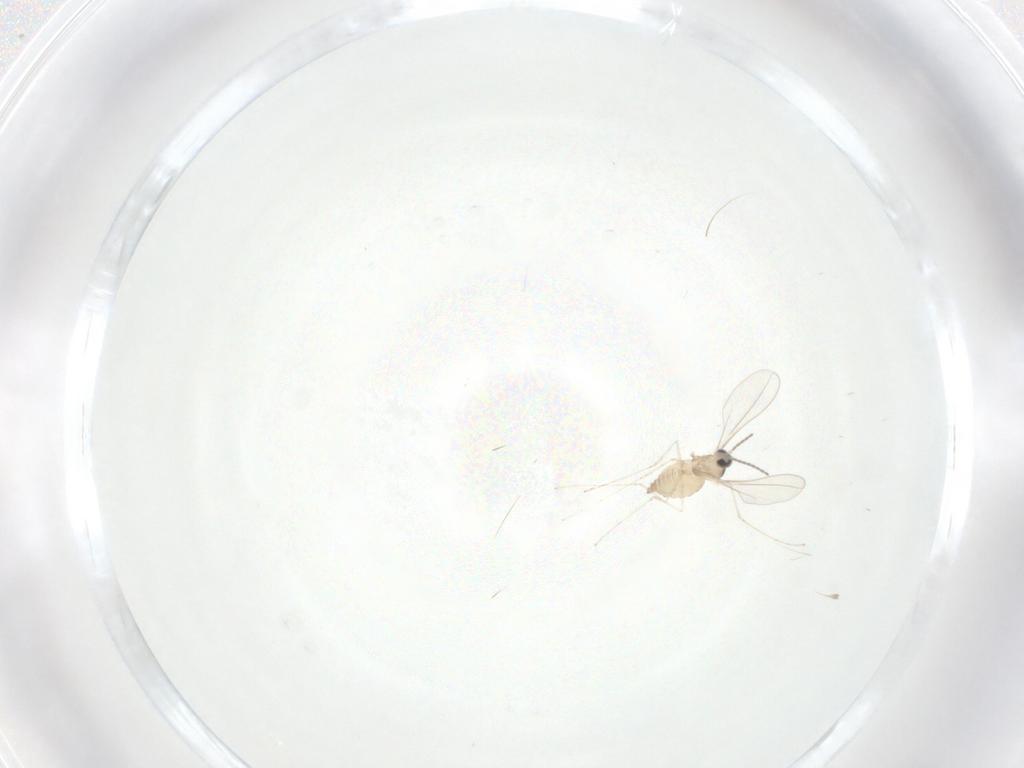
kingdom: Animalia
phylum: Arthropoda
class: Insecta
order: Diptera
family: Cecidomyiidae
